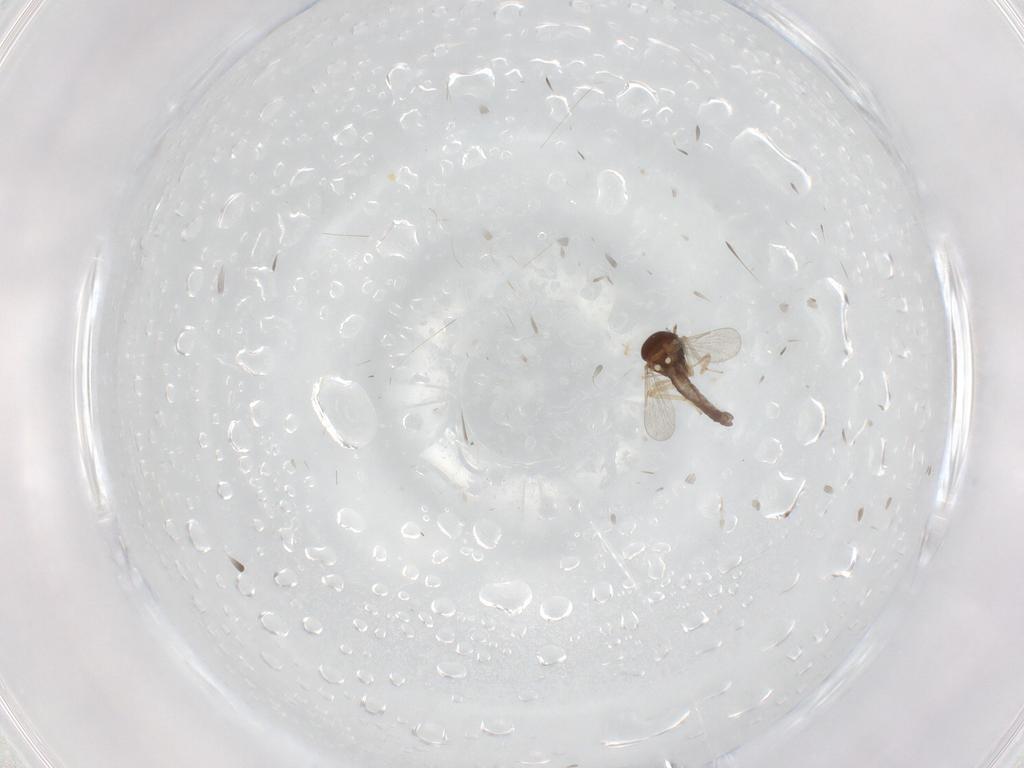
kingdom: Animalia
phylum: Arthropoda
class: Insecta
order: Diptera
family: Ceratopogonidae
